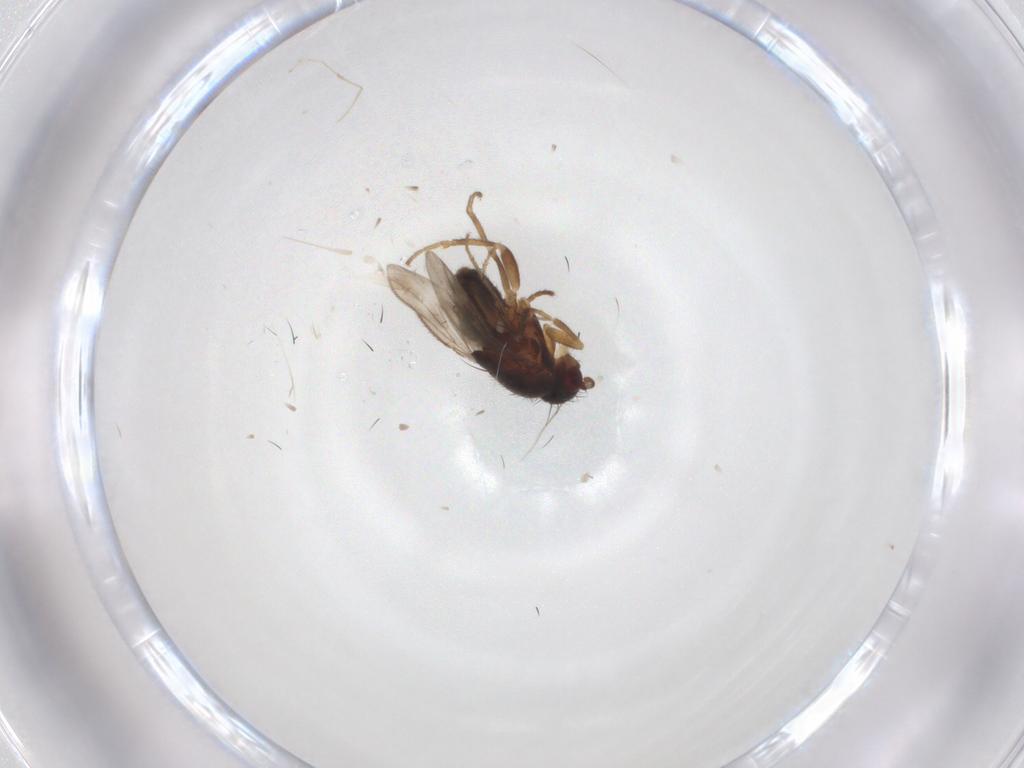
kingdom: Animalia
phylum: Arthropoda
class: Insecta
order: Diptera
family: Sphaeroceridae
